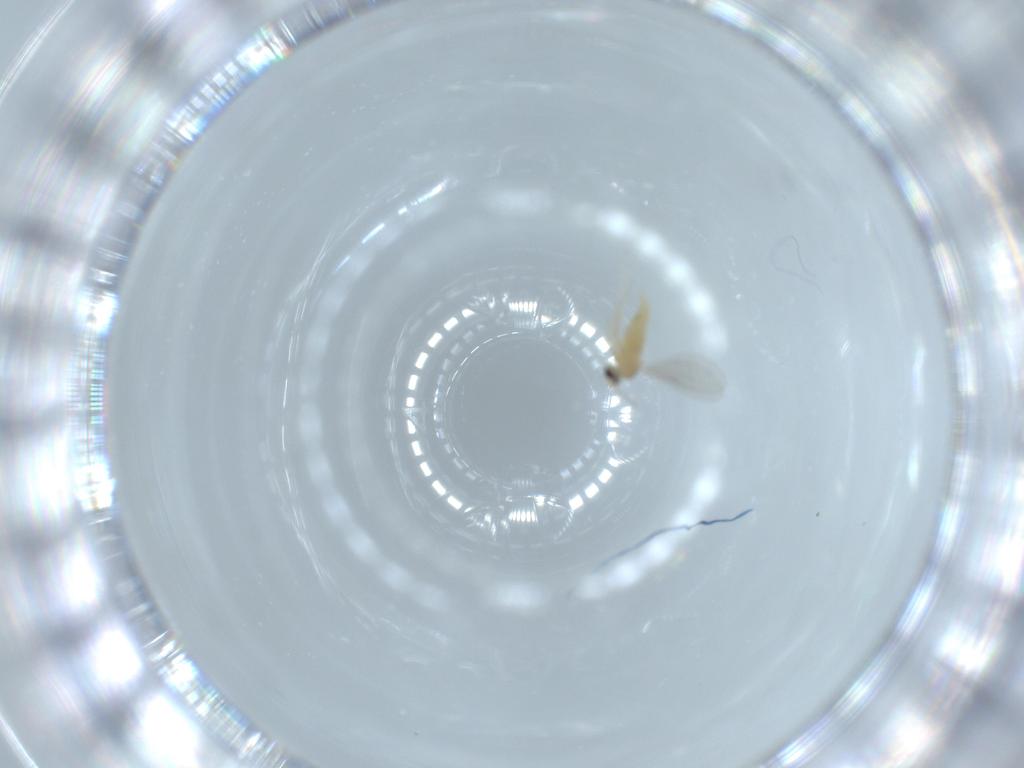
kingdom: Animalia
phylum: Arthropoda
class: Insecta
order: Diptera
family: Cecidomyiidae
